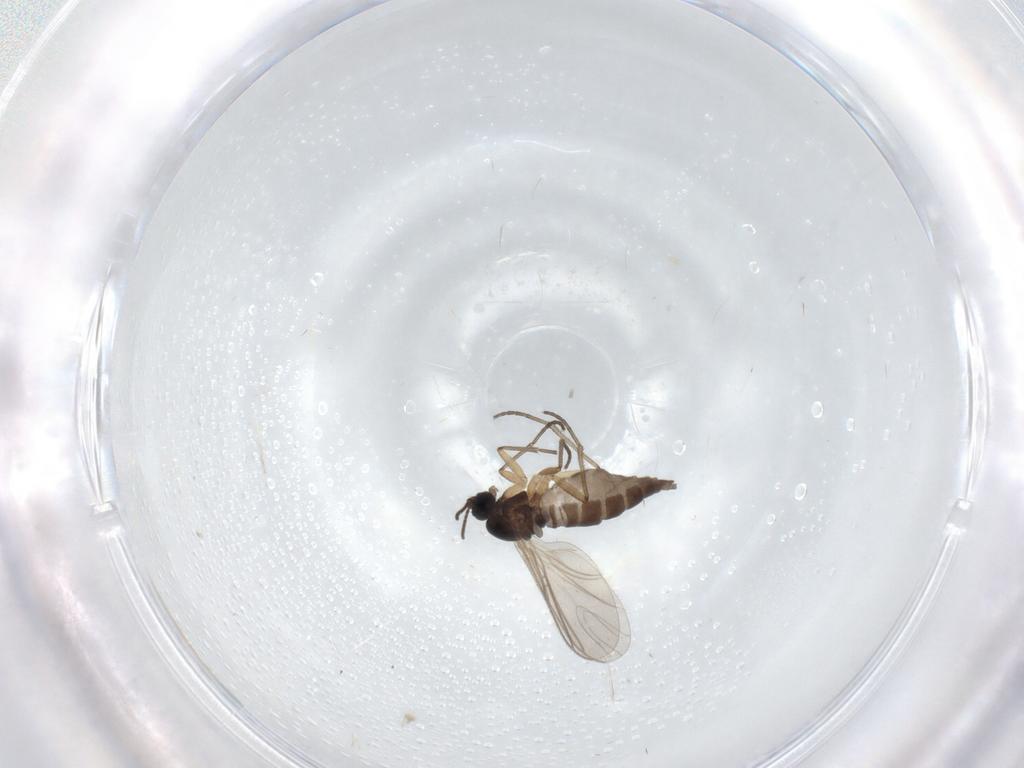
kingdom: Animalia
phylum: Arthropoda
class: Insecta
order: Diptera
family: Sciaridae
